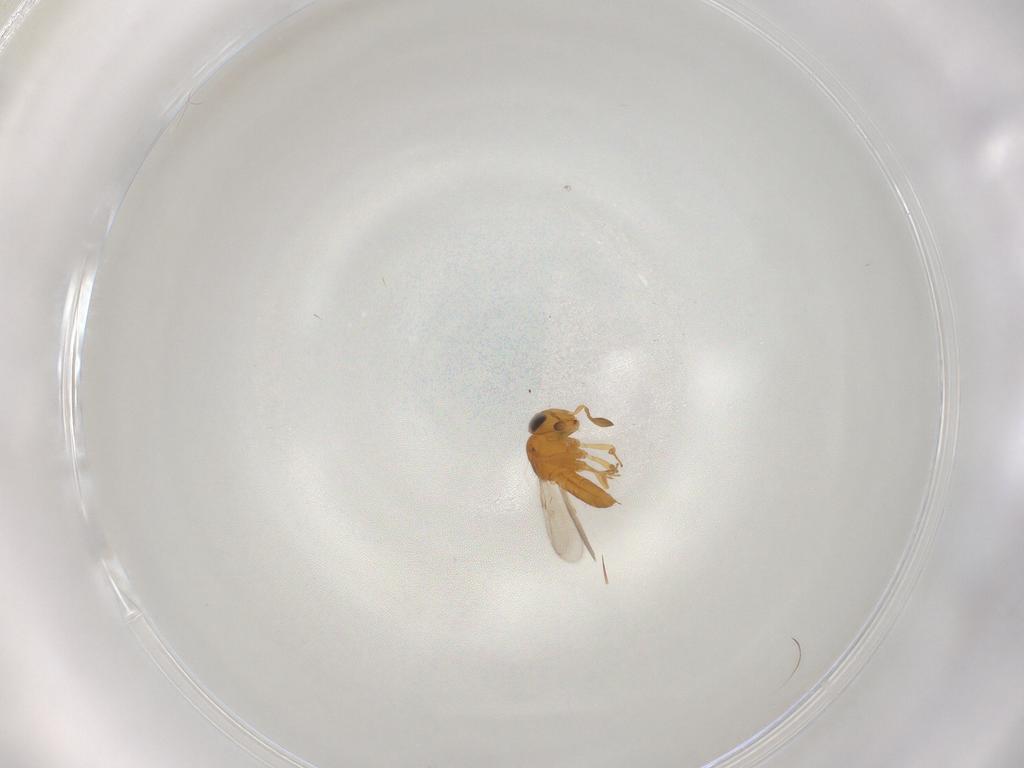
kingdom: Animalia
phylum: Arthropoda
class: Insecta
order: Hymenoptera
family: Scelionidae
